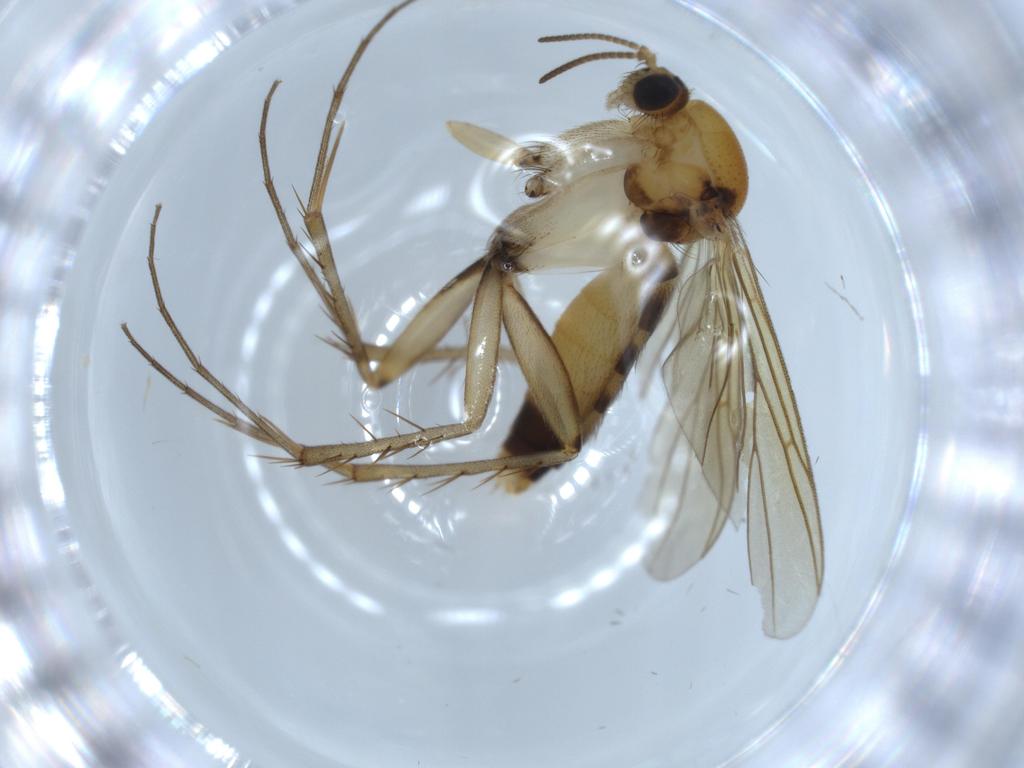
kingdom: Animalia
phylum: Arthropoda
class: Insecta
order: Diptera
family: Mycetophilidae
